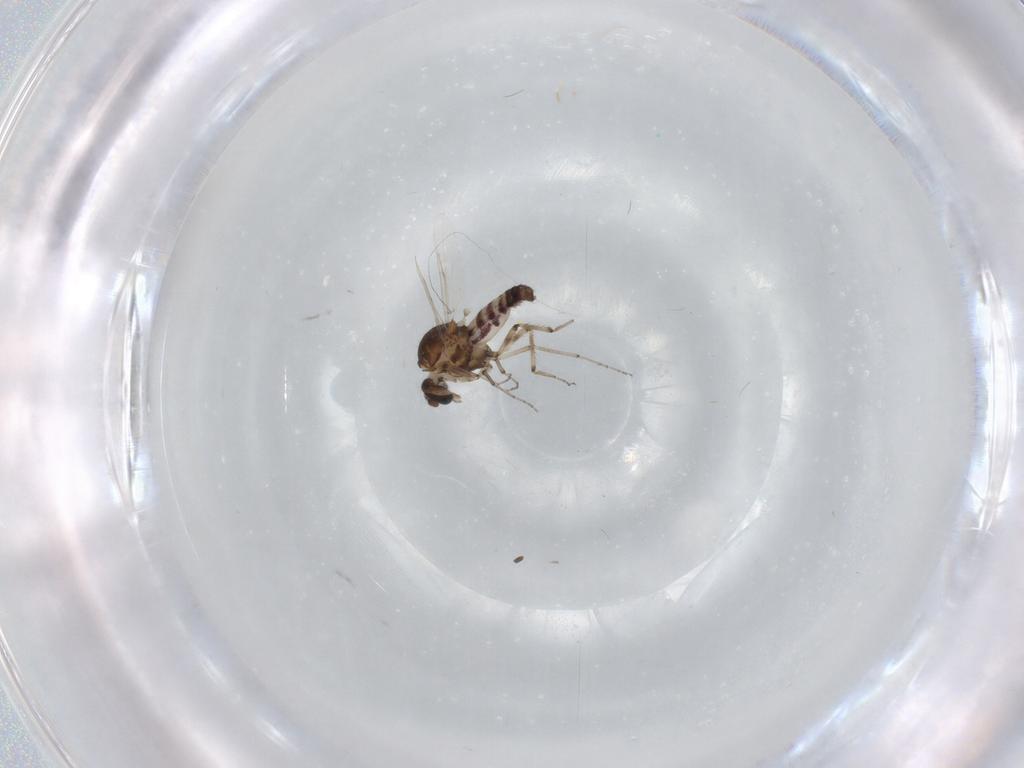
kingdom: Animalia
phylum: Arthropoda
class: Insecta
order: Diptera
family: Ceratopogonidae
